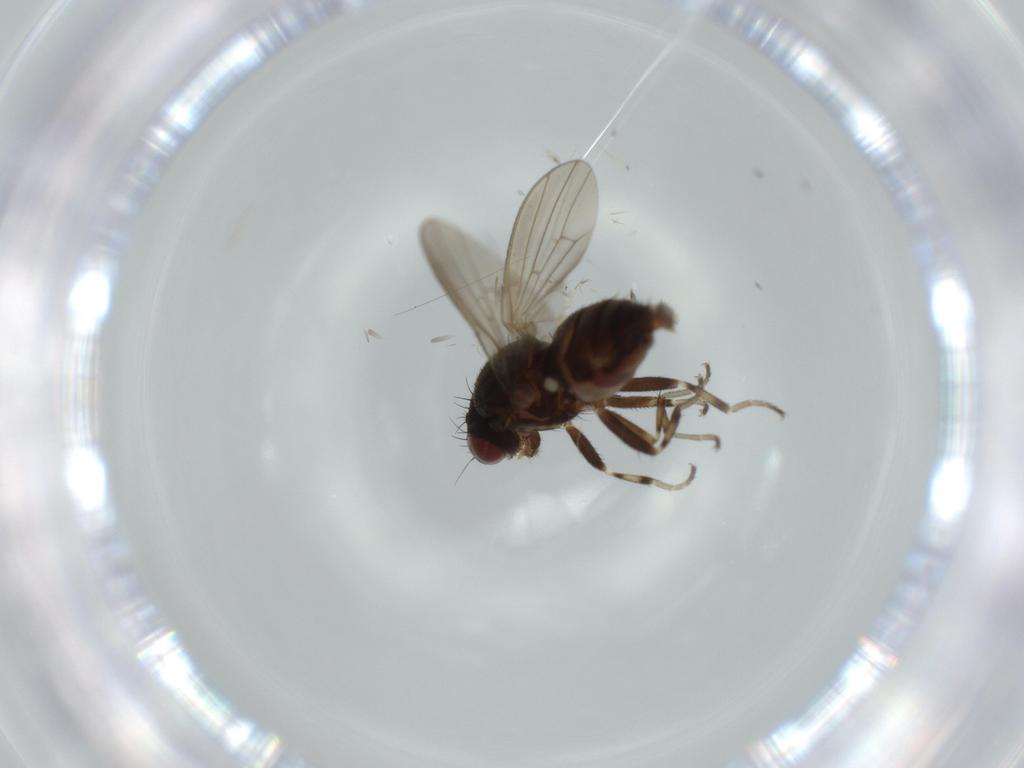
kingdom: Animalia
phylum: Arthropoda
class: Insecta
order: Diptera
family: Heleomyzidae
